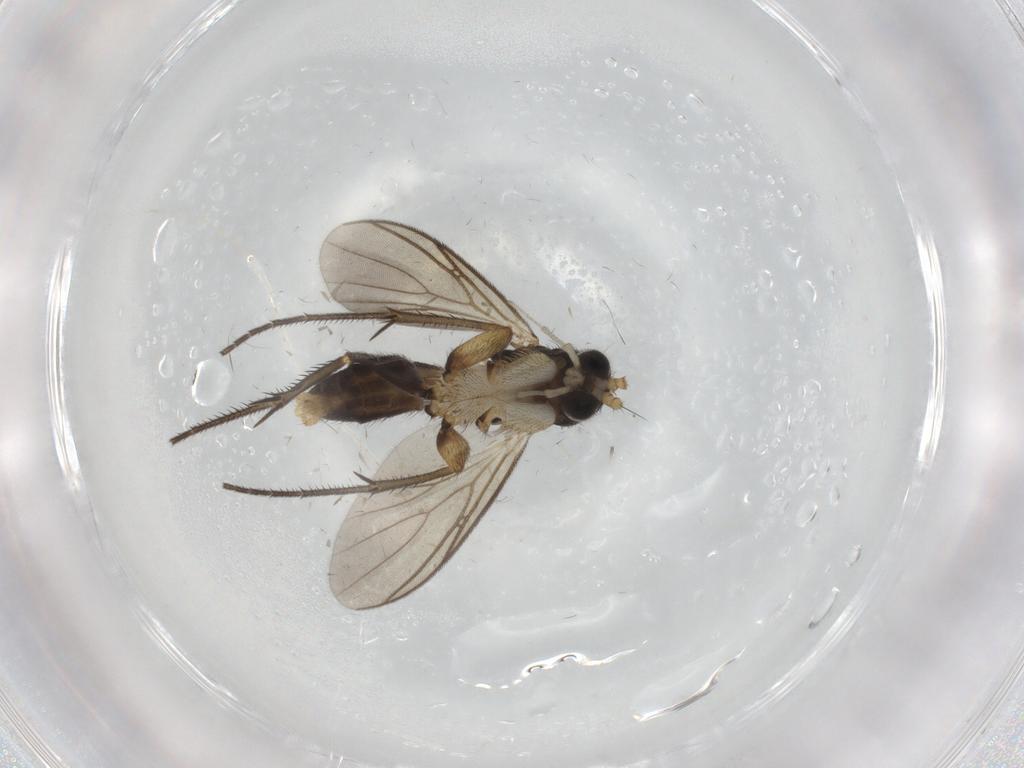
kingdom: Animalia
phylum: Arthropoda
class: Insecta
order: Diptera
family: Mycetophilidae
